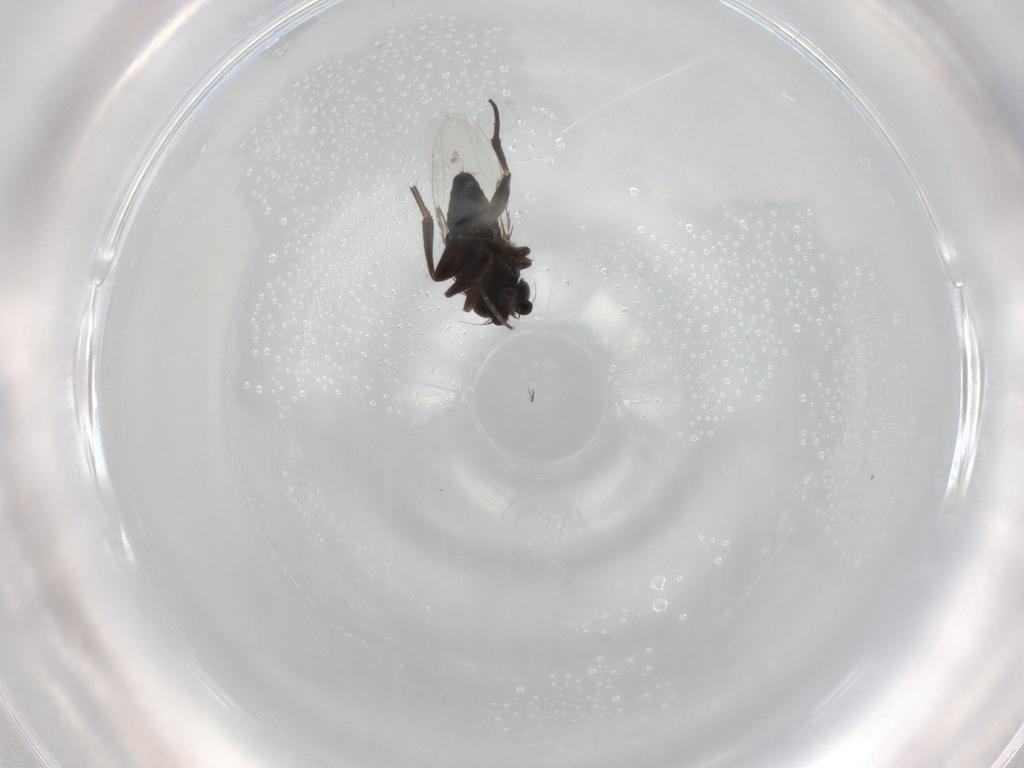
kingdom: Animalia
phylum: Arthropoda
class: Insecta
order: Diptera
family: Phoridae
